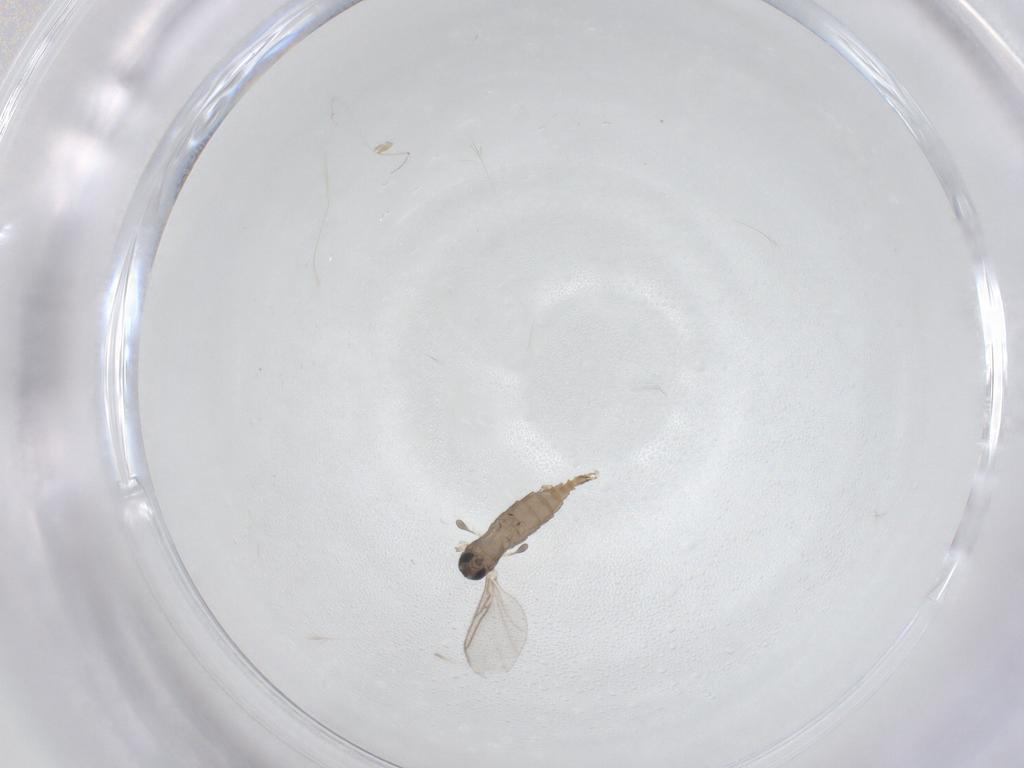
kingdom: Animalia
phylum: Arthropoda
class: Insecta
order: Diptera
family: Sciaridae
